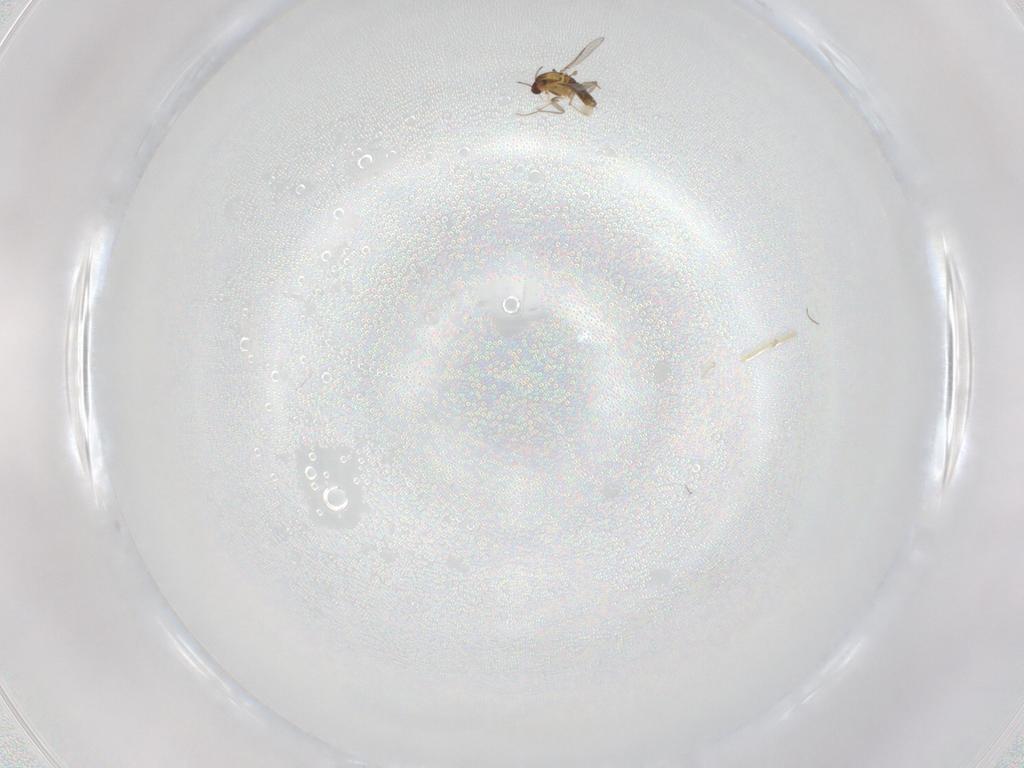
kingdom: Animalia
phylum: Arthropoda
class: Insecta
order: Diptera
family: Chironomidae
